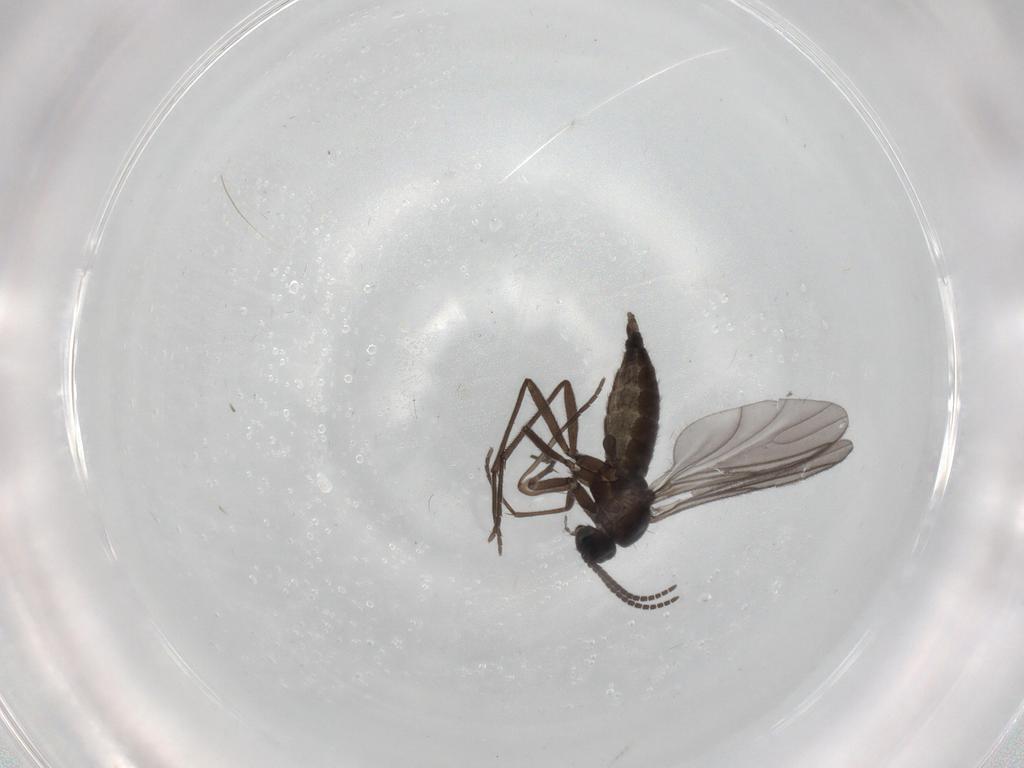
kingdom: Animalia
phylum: Arthropoda
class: Insecta
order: Diptera
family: Sciaridae
